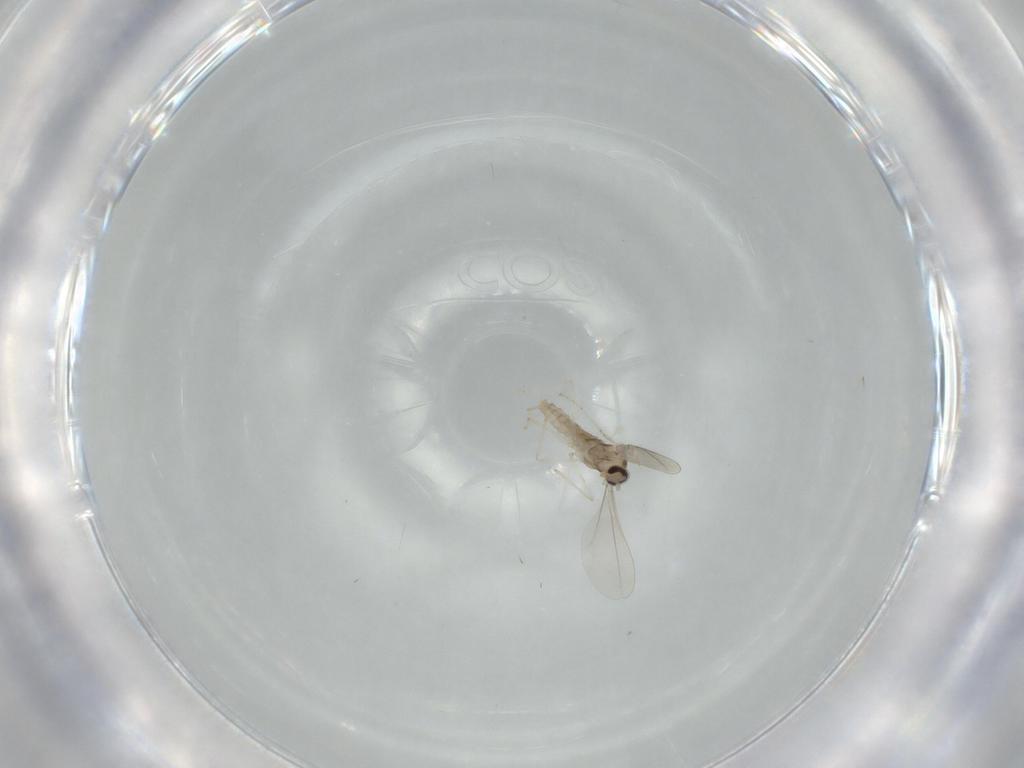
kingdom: Animalia
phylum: Arthropoda
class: Insecta
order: Diptera
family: Cecidomyiidae
